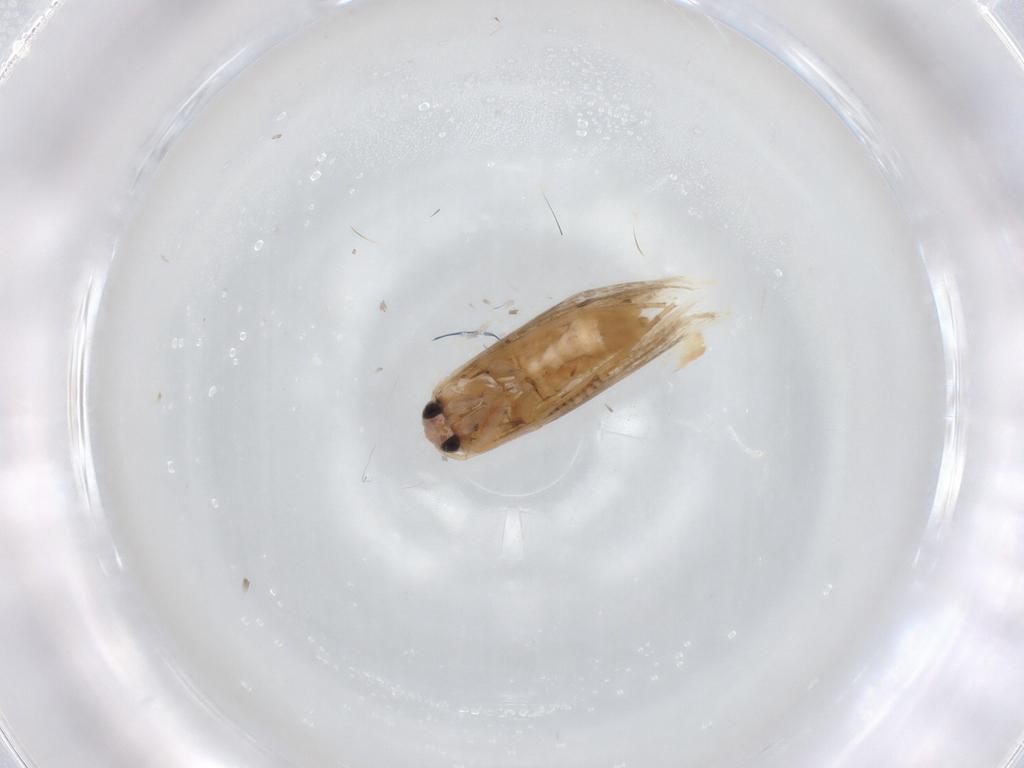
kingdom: Animalia
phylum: Arthropoda
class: Insecta
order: Lepidoptera
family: Bucculatricidae
